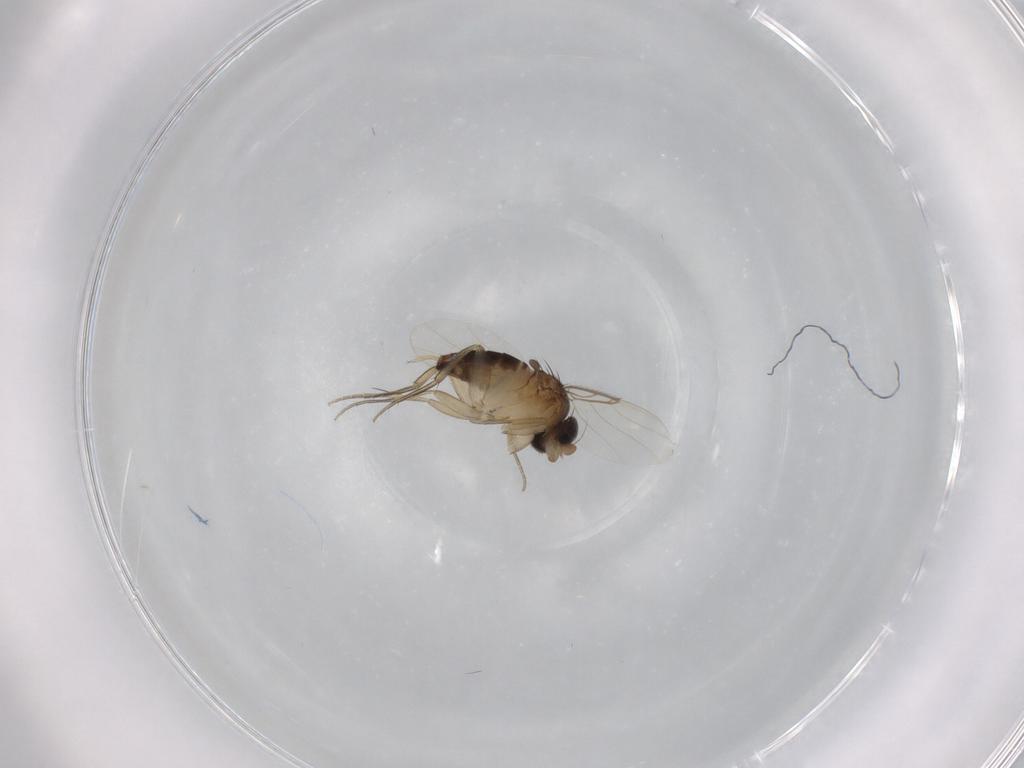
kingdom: Animalia
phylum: Arthropoda
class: Insecta
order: Diptera
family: Phoridae
